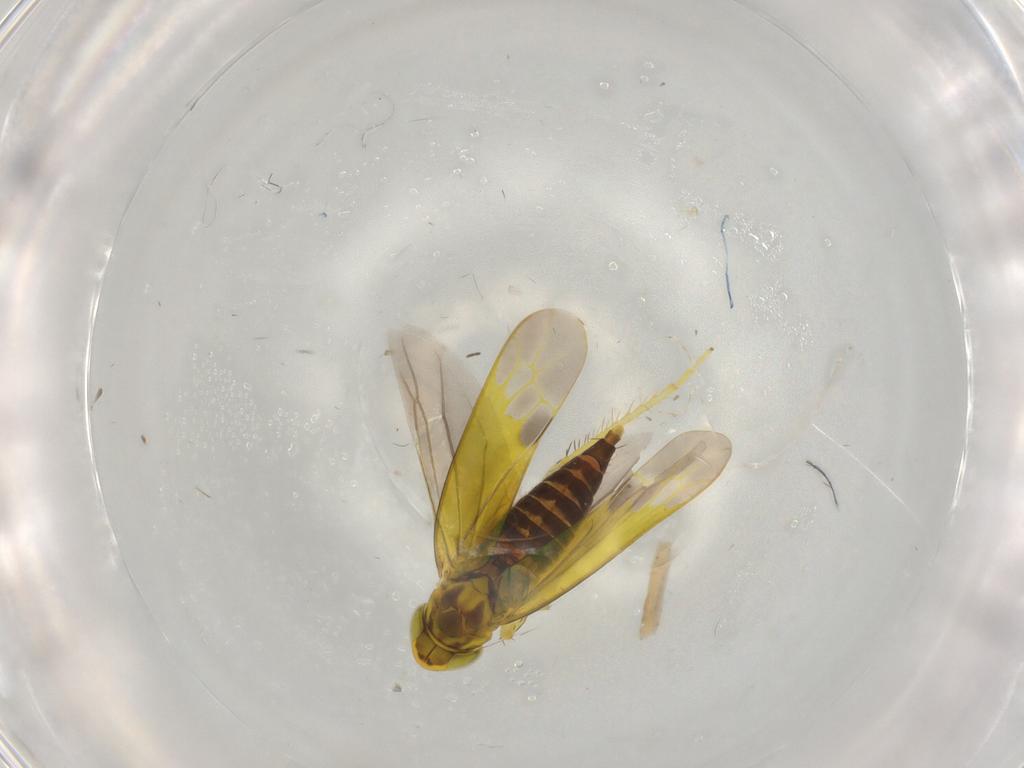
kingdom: Animalia
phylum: Arthropoda
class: Insecta
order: Hemiptera
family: Cicadellidae
